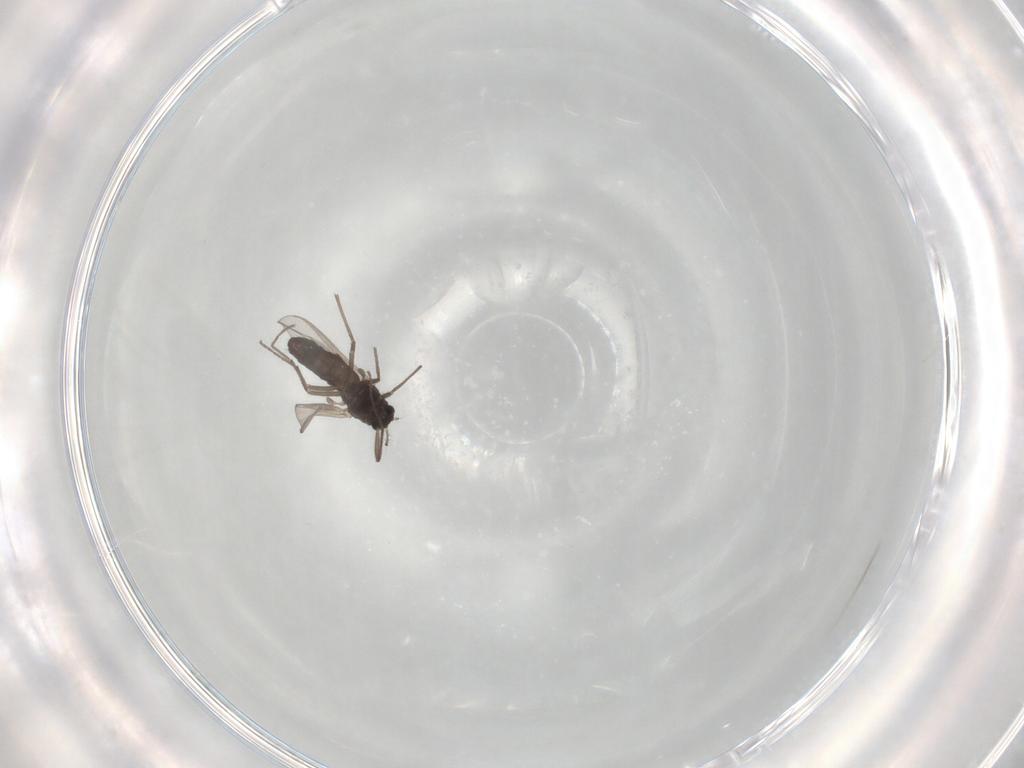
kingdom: Animalia
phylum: Arthropoda
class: Insecta
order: Diptera
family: Chironomidae
